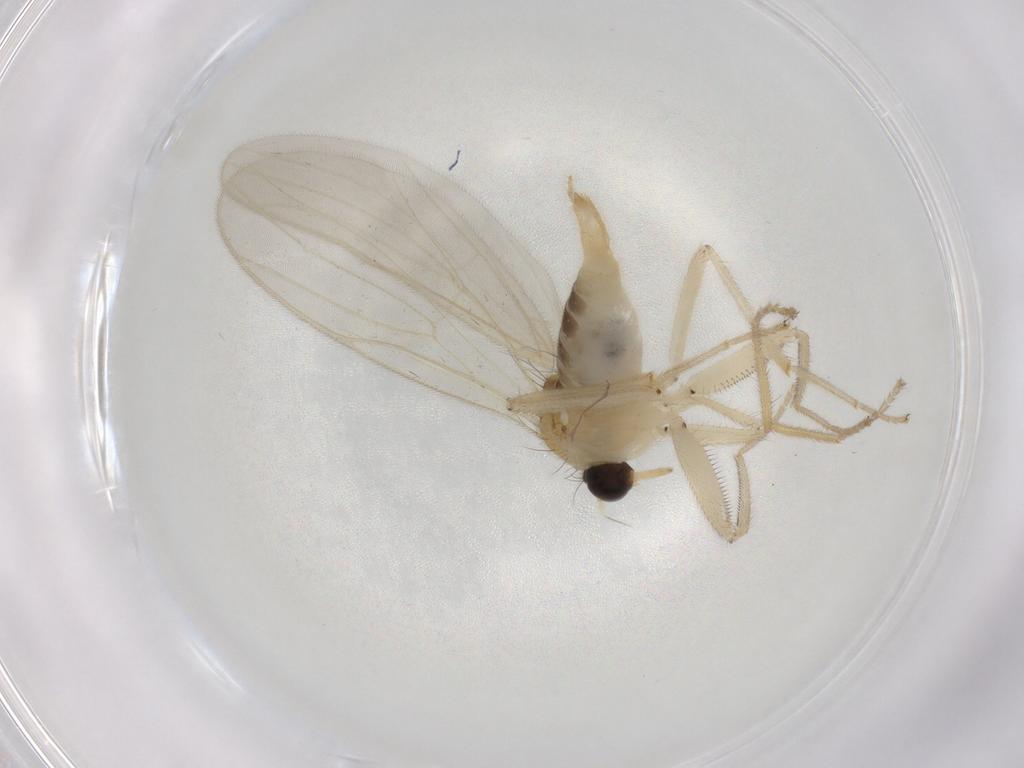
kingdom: Animalia
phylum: Arthropoda
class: Insecta
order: Diptera
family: Hybotidae
